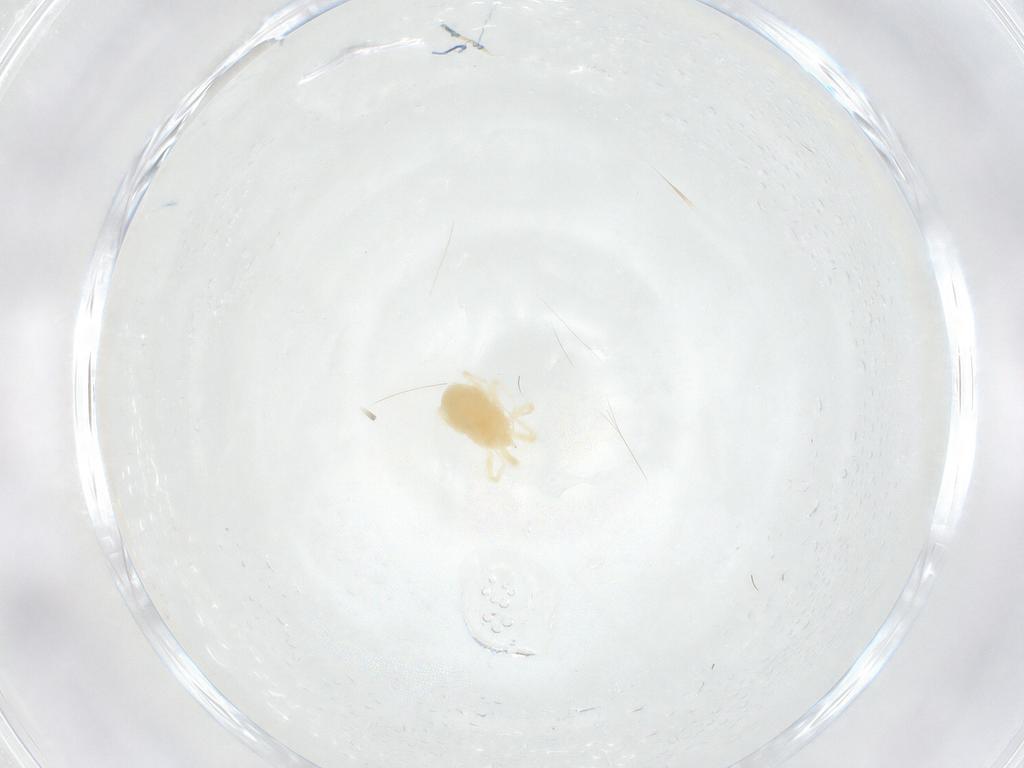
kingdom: Animalia
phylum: Arthropoda
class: Arachnida
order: Trombidiformes
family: Anystidae
